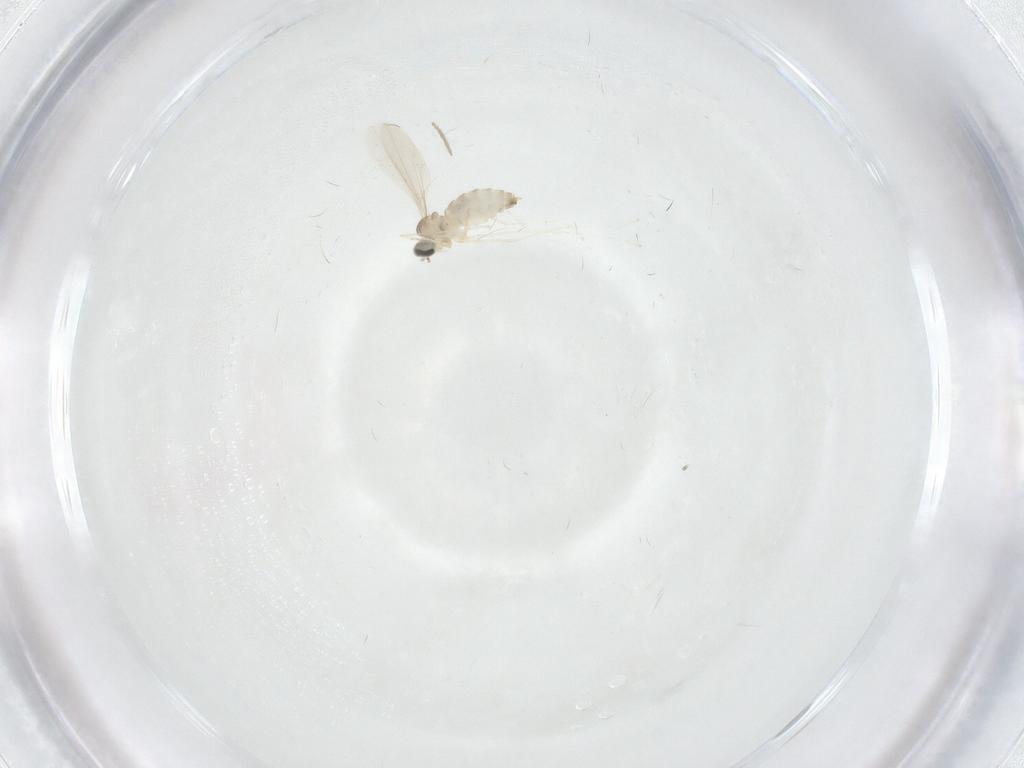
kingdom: Animalia
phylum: Arthropoda
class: Insecta
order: Diptera
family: Chironomidae
